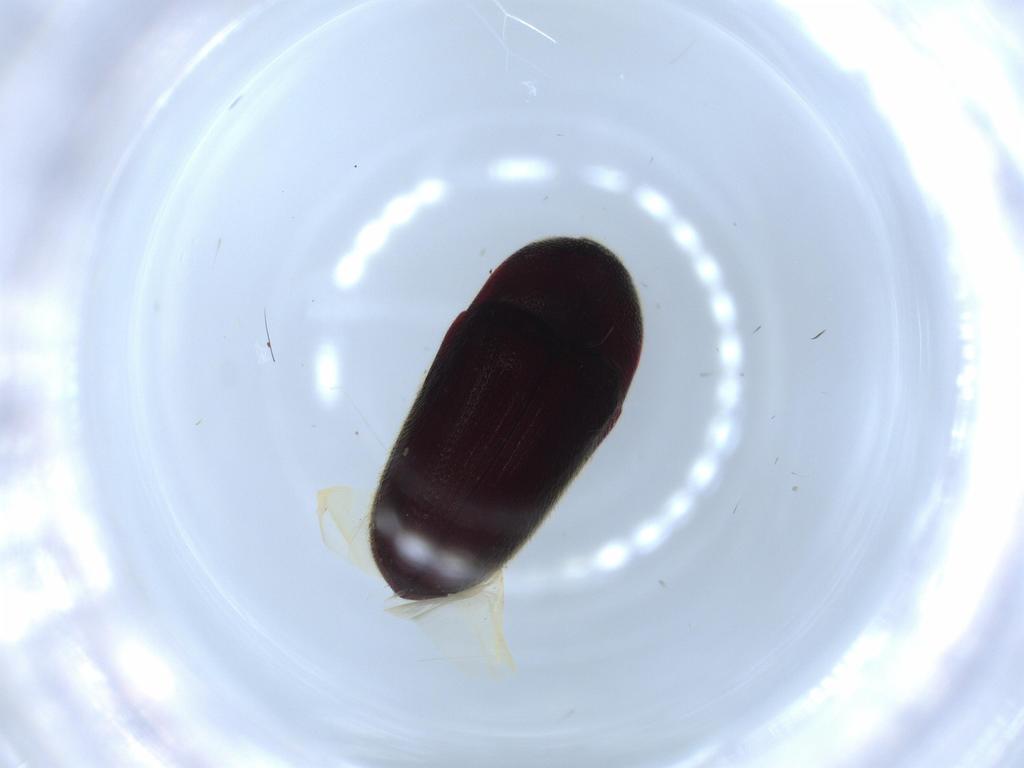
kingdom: Animalia
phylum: Arthropoda
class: Insecta
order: Coleoptera
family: Throscidae
